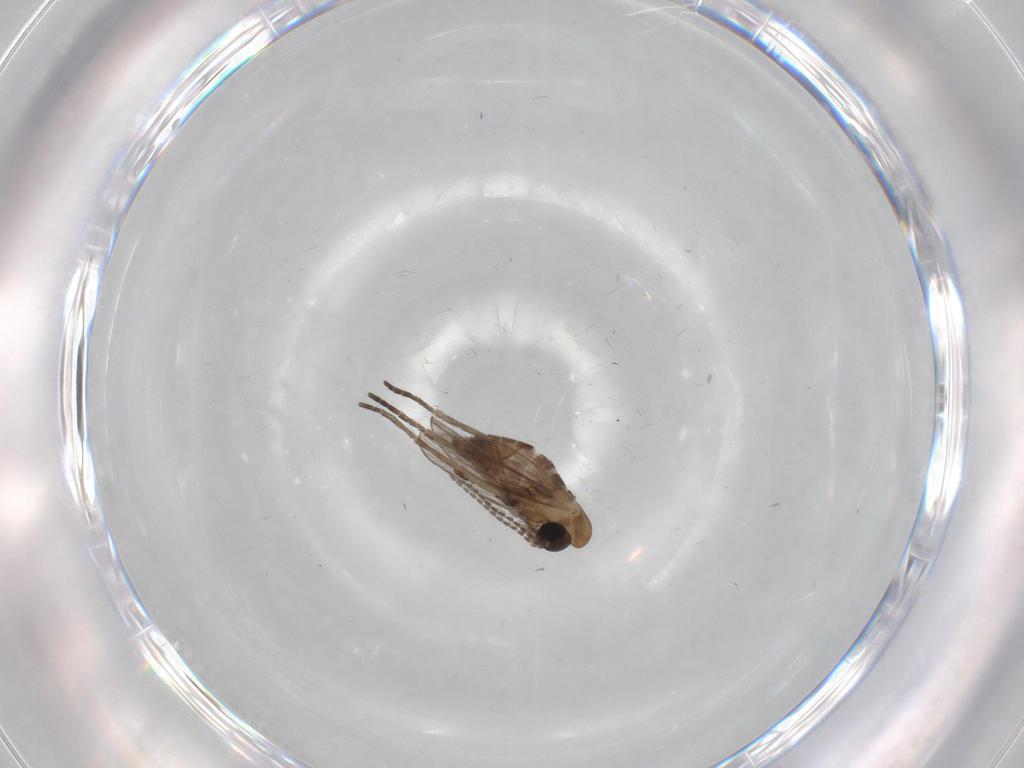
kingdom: Animalia
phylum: Arthropoda
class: Insecta
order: Diptera
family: Psychodidae
